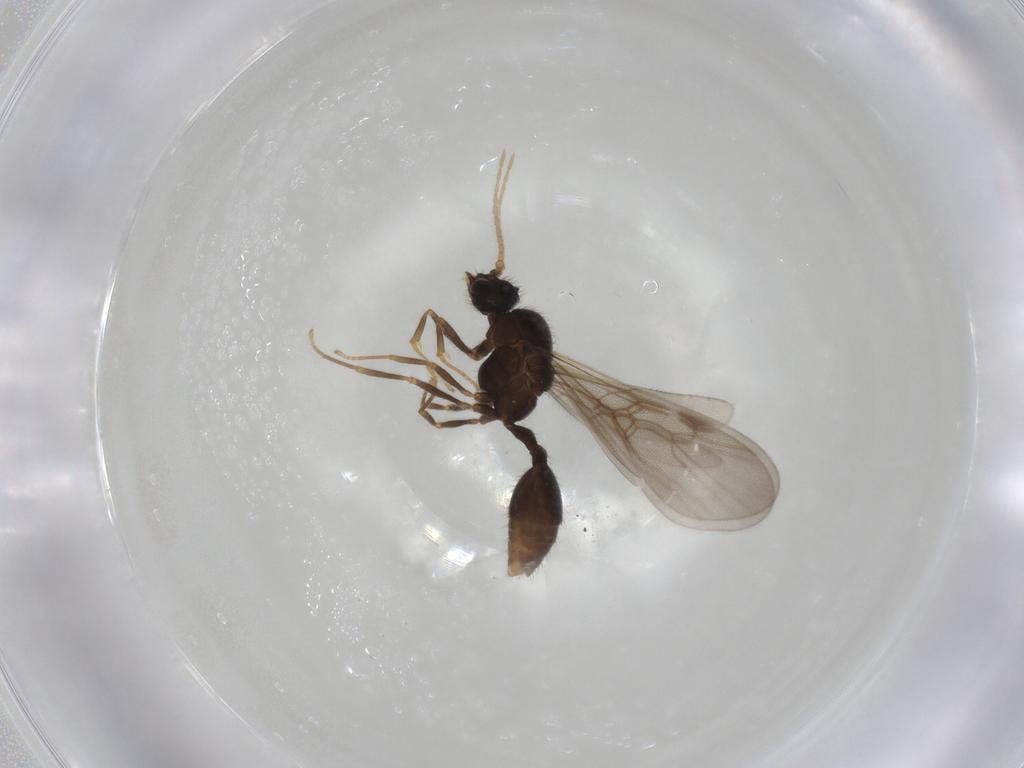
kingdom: Animalia
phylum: Arthropoda
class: Insecta
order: Hymenoptera
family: Formicidae
